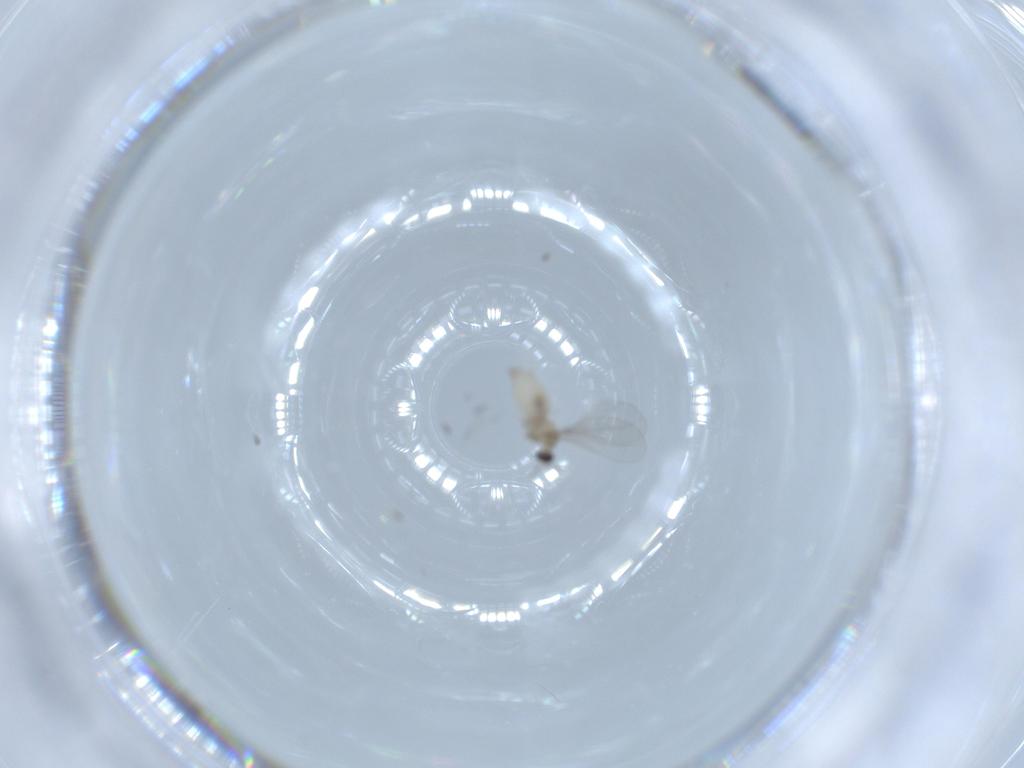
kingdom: Animalia
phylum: Arthropoda
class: Insecta
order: Diptera
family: Cecidomyiidae
